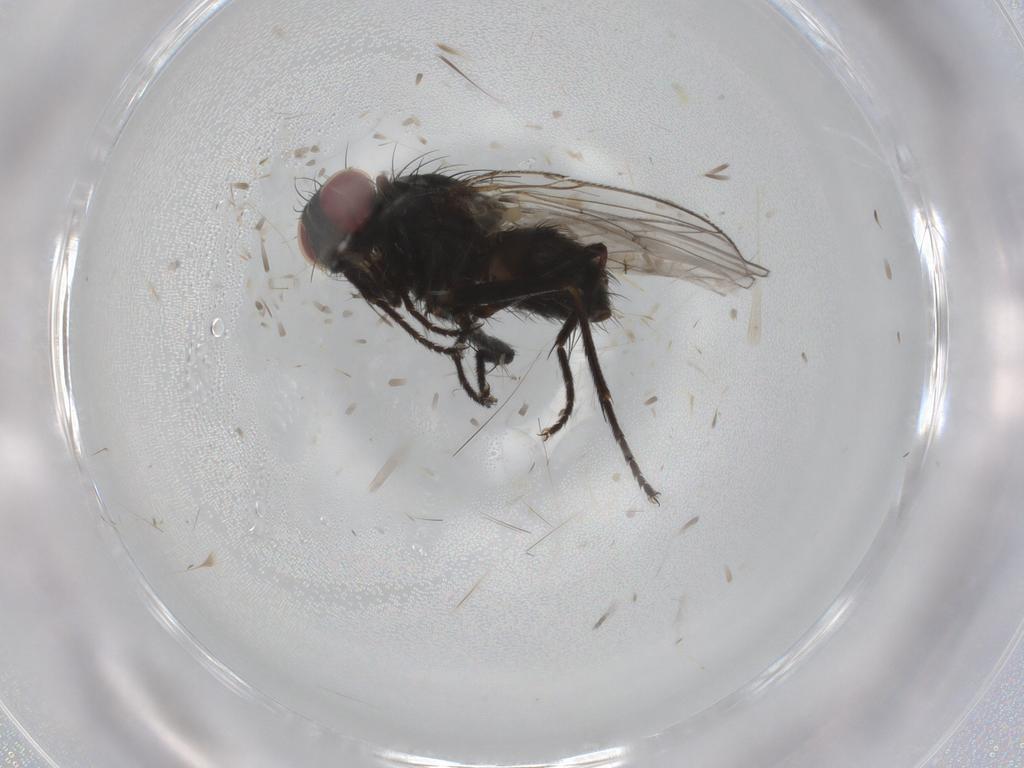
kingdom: Animalia
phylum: Arthropoda
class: Insecta
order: Diptera
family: Muscidae
